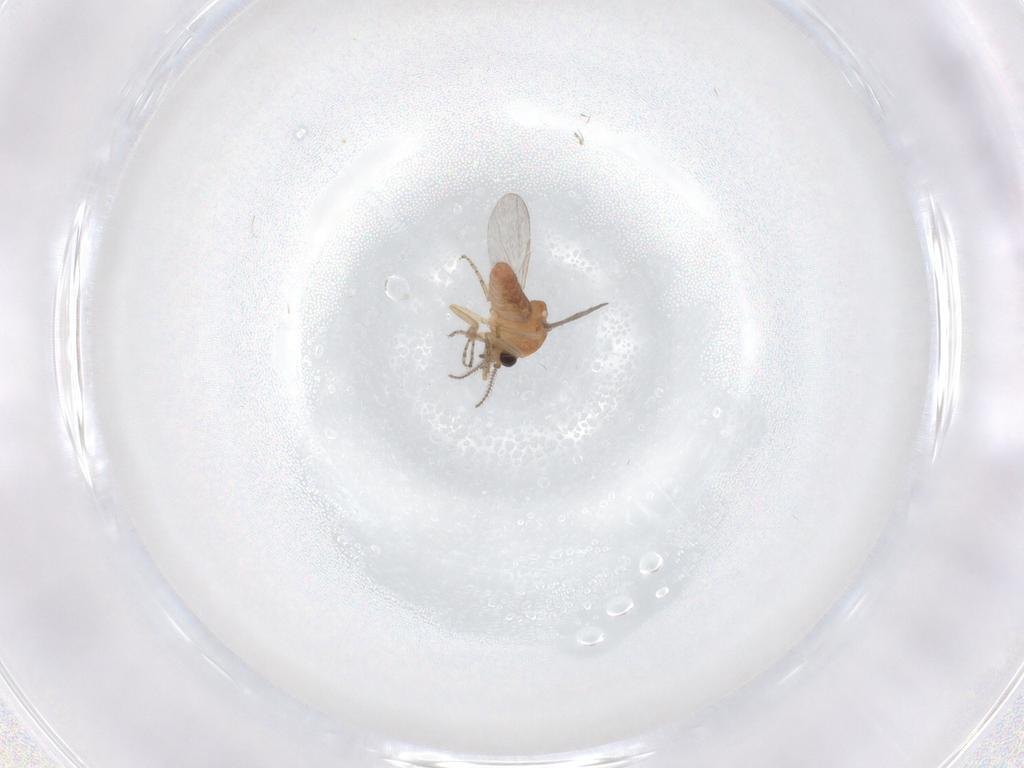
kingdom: Animalia
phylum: Arthropoda
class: Insecta
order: Diptera
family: Ceratopogonidae
